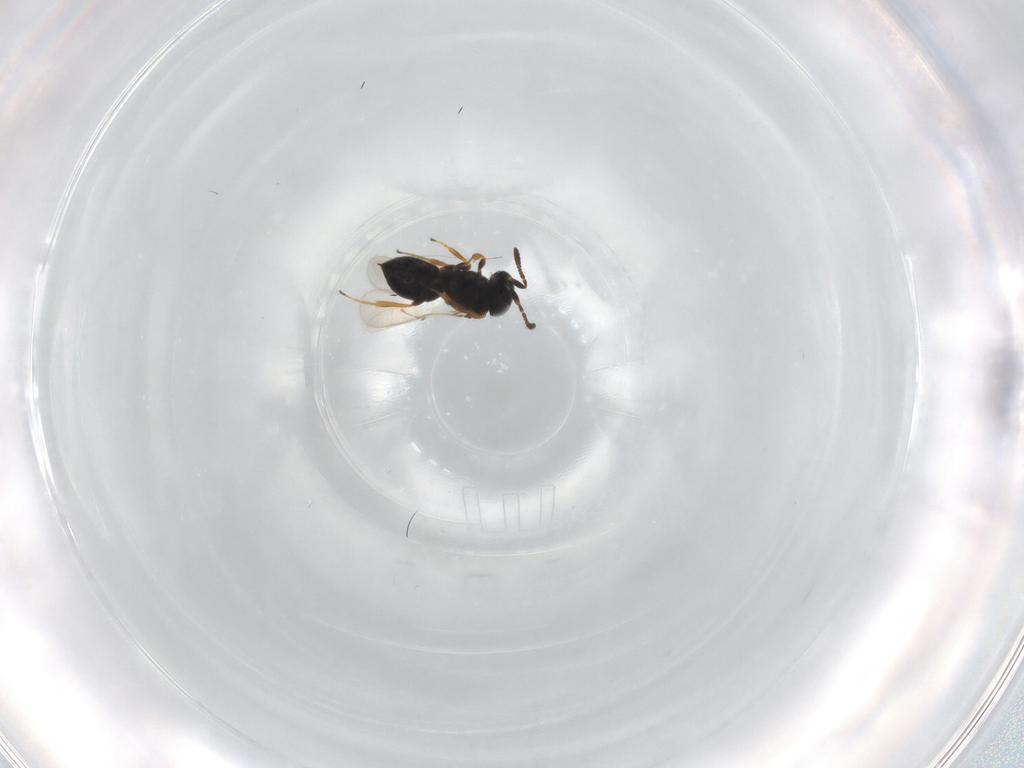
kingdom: Animalia
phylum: Arthropoda
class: Insecta
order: Hymenoptera
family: Scelionidae
